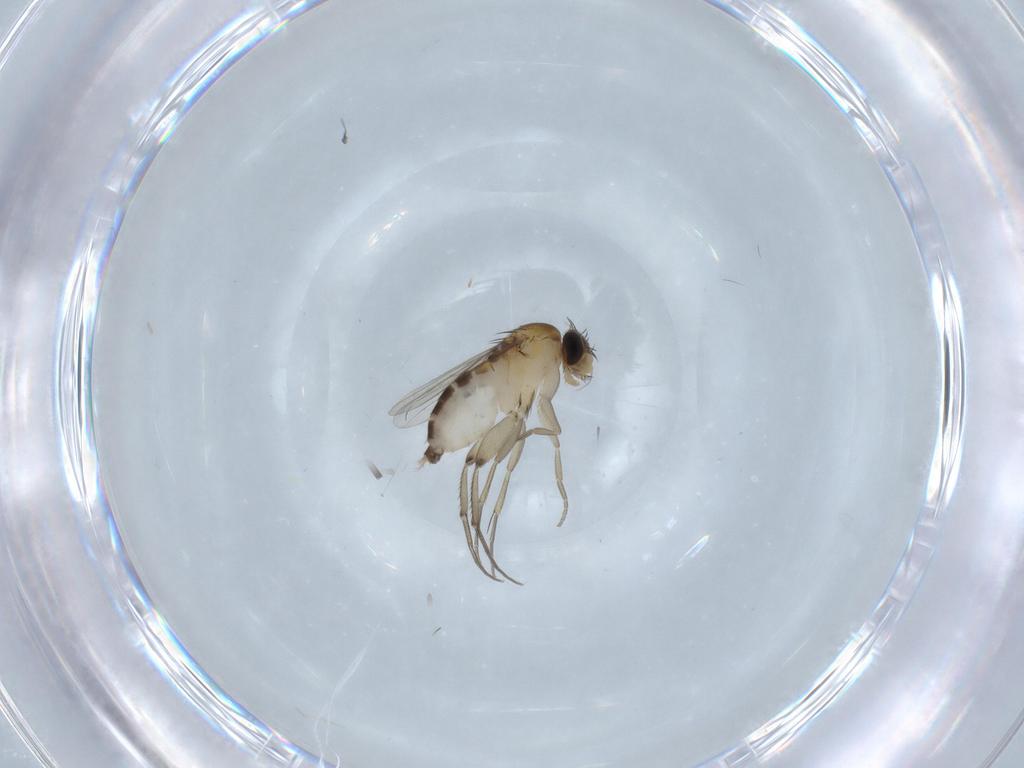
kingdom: Animalia
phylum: Arthropoda
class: Insecta
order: Diptera
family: Phoridae
